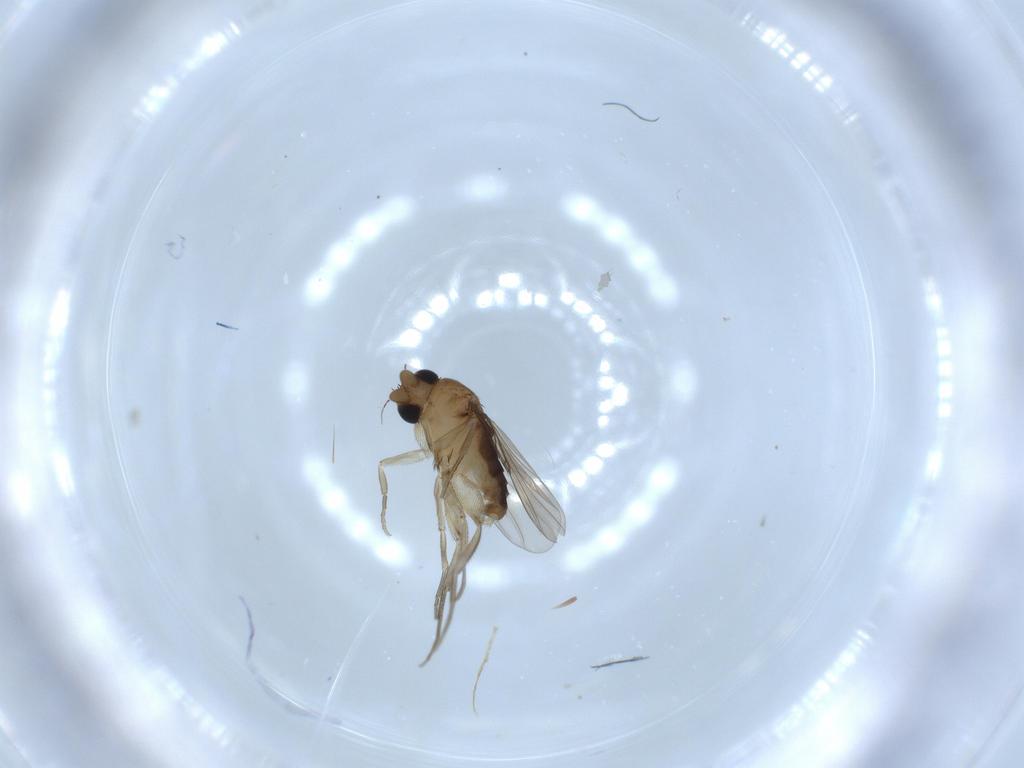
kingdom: Animalia
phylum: Arthropoda
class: Insecta
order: Diptera
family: Phoridae
